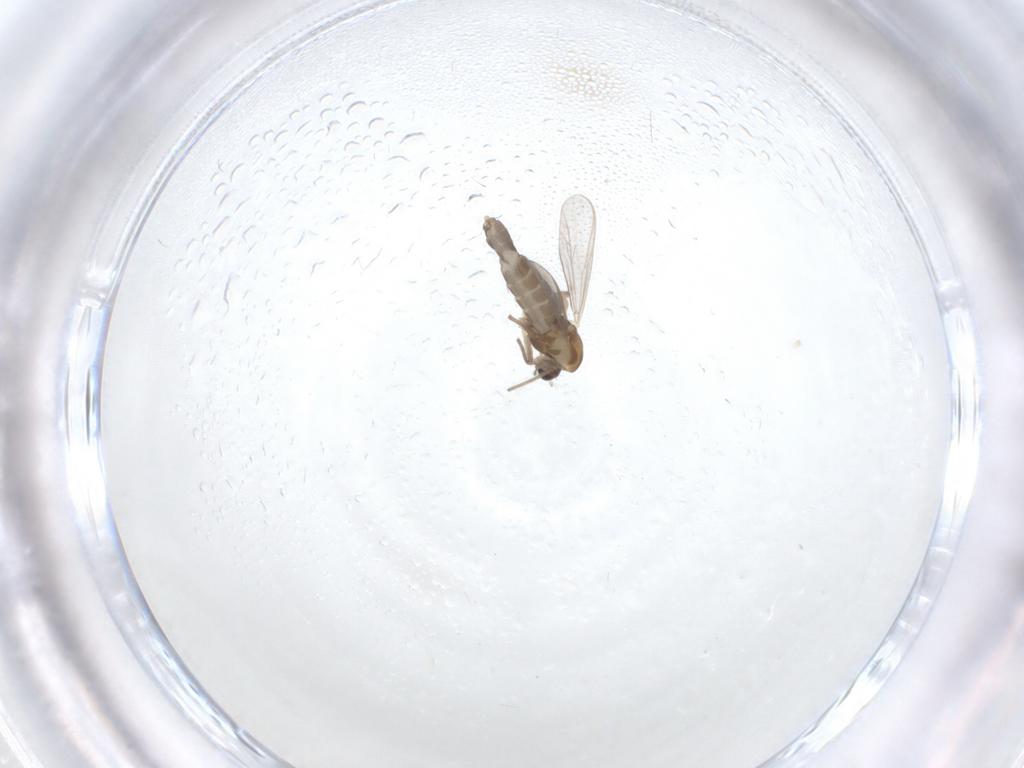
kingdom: Animalia
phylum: Arthropoda
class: Insecta
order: Diptera
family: Chironomidae
